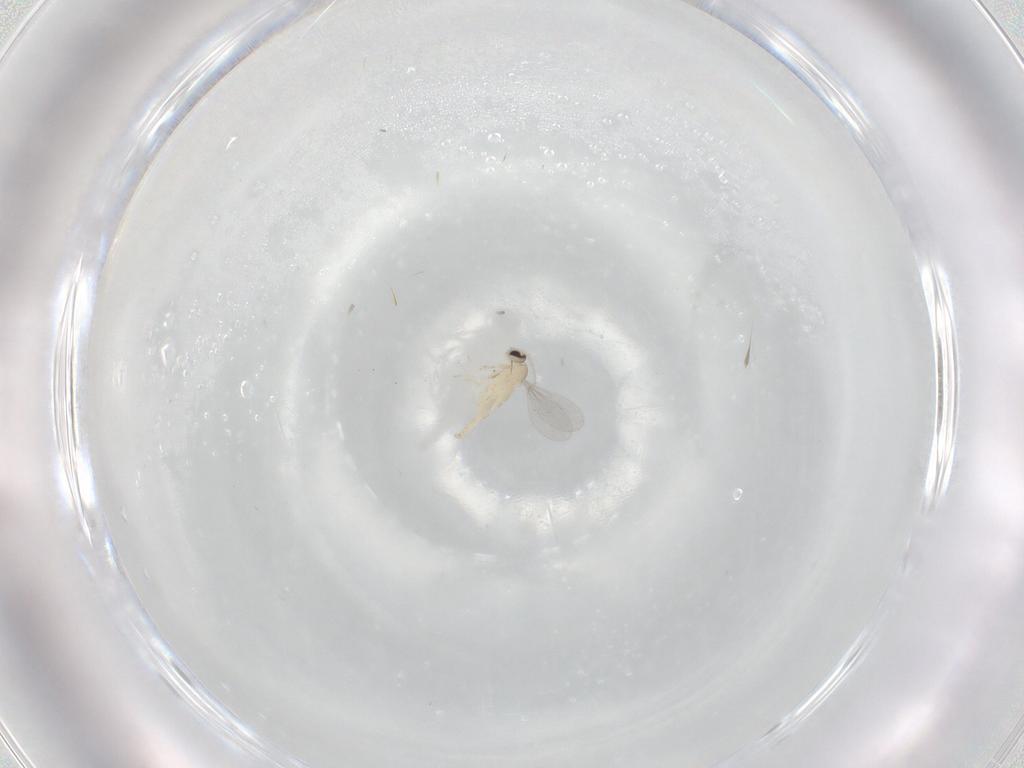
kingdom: Animalia
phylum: Arthropoda
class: Insecta
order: Diptera
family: Cecidomyiidae
